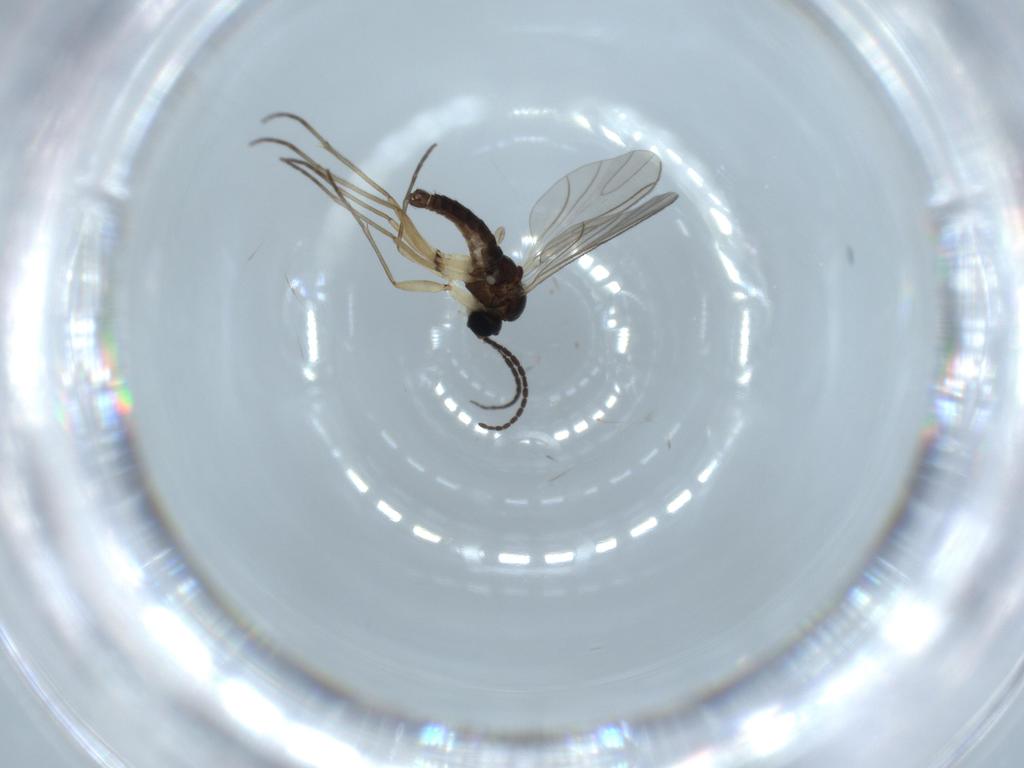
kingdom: Animalia
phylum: Arthropoda
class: Insecta
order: Diptera
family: Sciaridae
